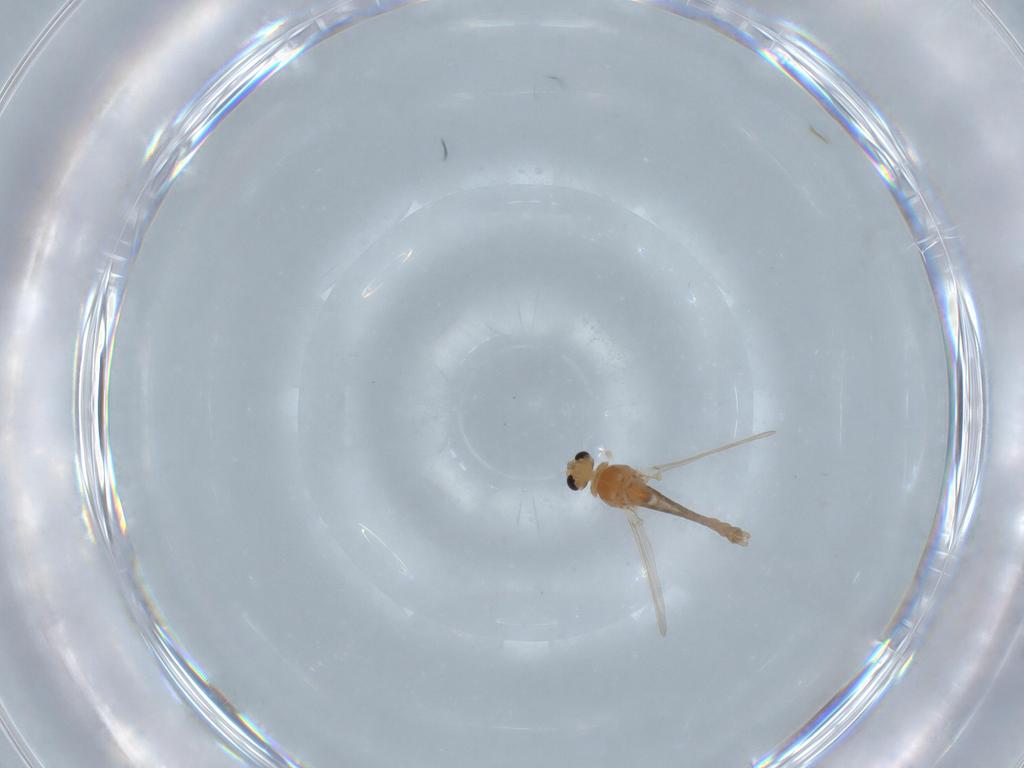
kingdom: Animalia
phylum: Arthropoda
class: Insecta
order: Diptera
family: Chironomidae
